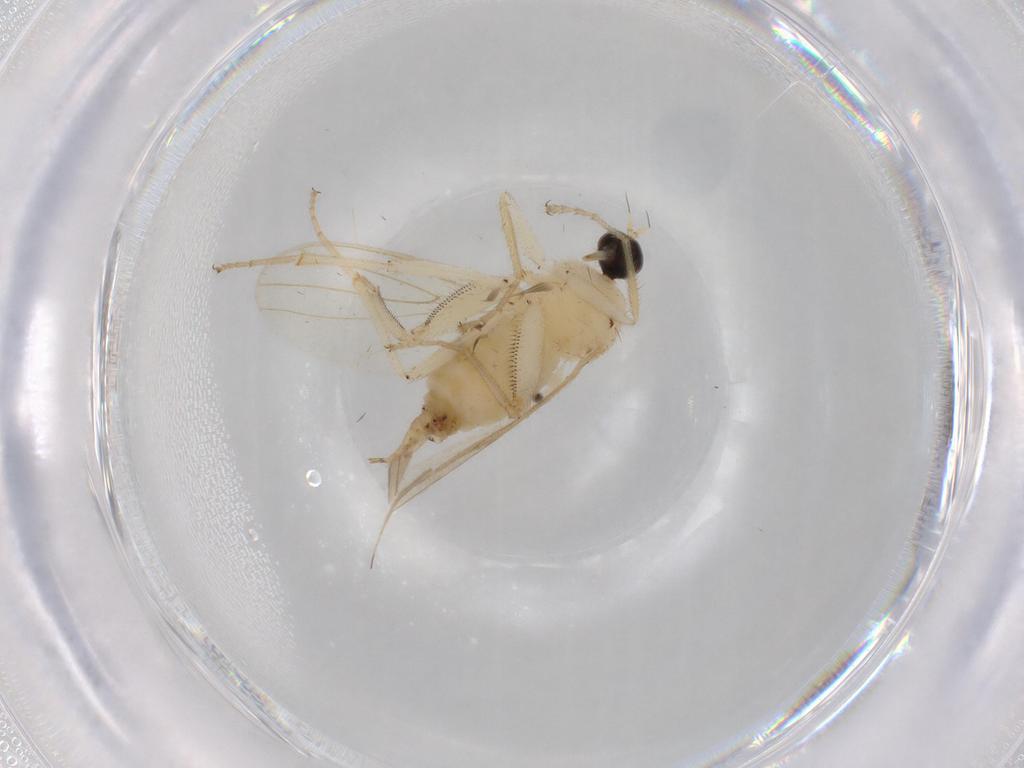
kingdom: Animalia
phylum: Arthropoda
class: Insecta
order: Diptera
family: Hybotidae
